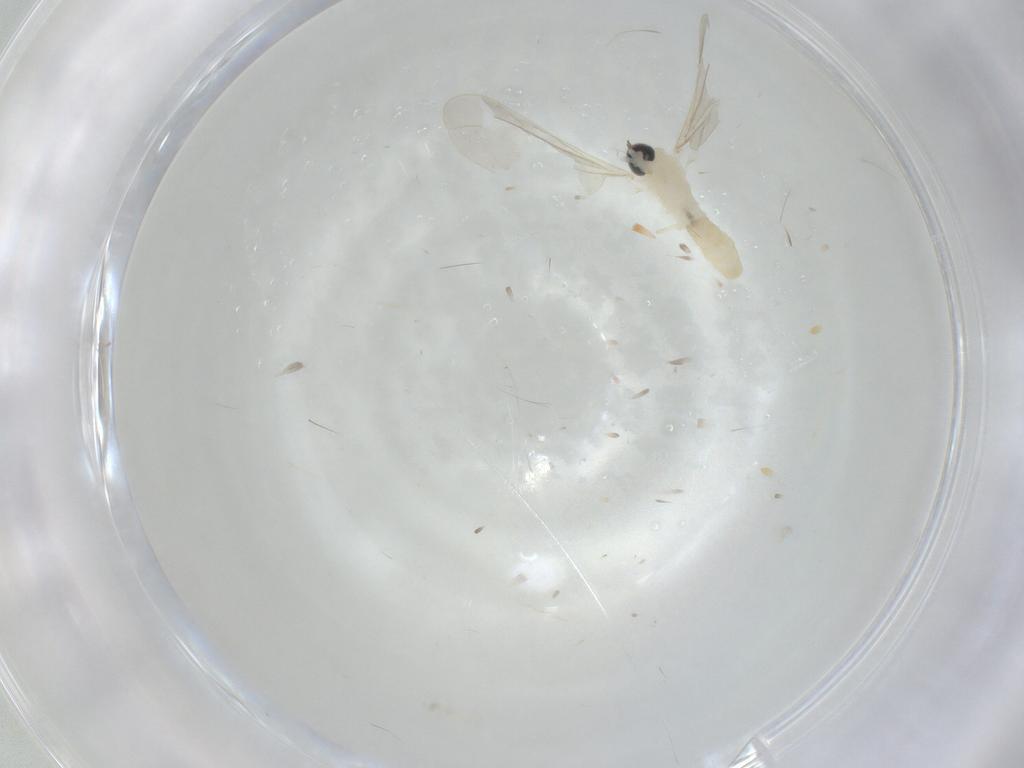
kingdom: Animalia
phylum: Arthropoda
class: Insecta
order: Diptera
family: Cecidomyiidae
